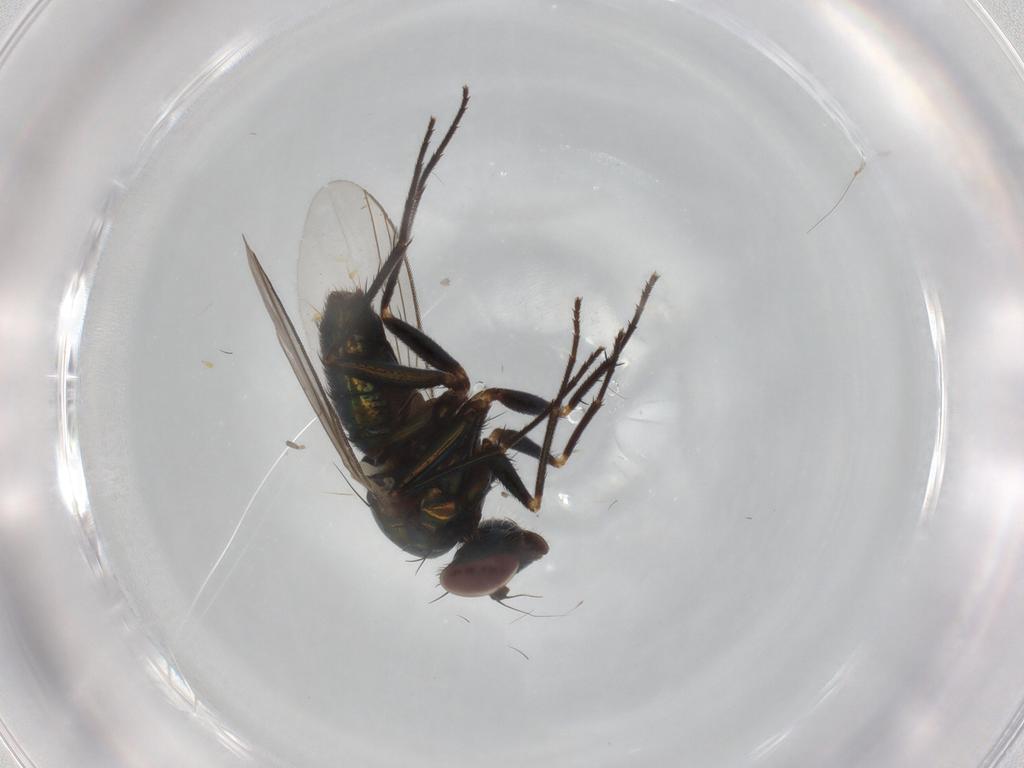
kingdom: Animalia
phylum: Arthropoda
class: Insecta
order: Diptera
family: Dolichopodidae
